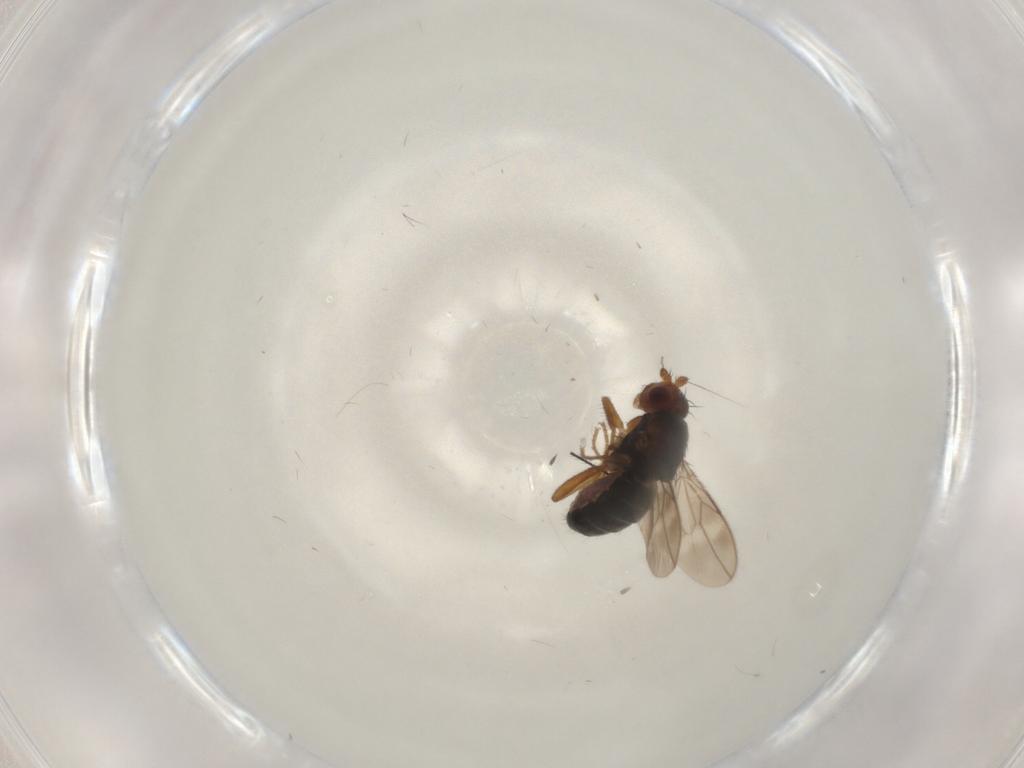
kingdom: Animalia
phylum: Arthropoda
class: Insecta
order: Diptera
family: Sphaeroceridae
